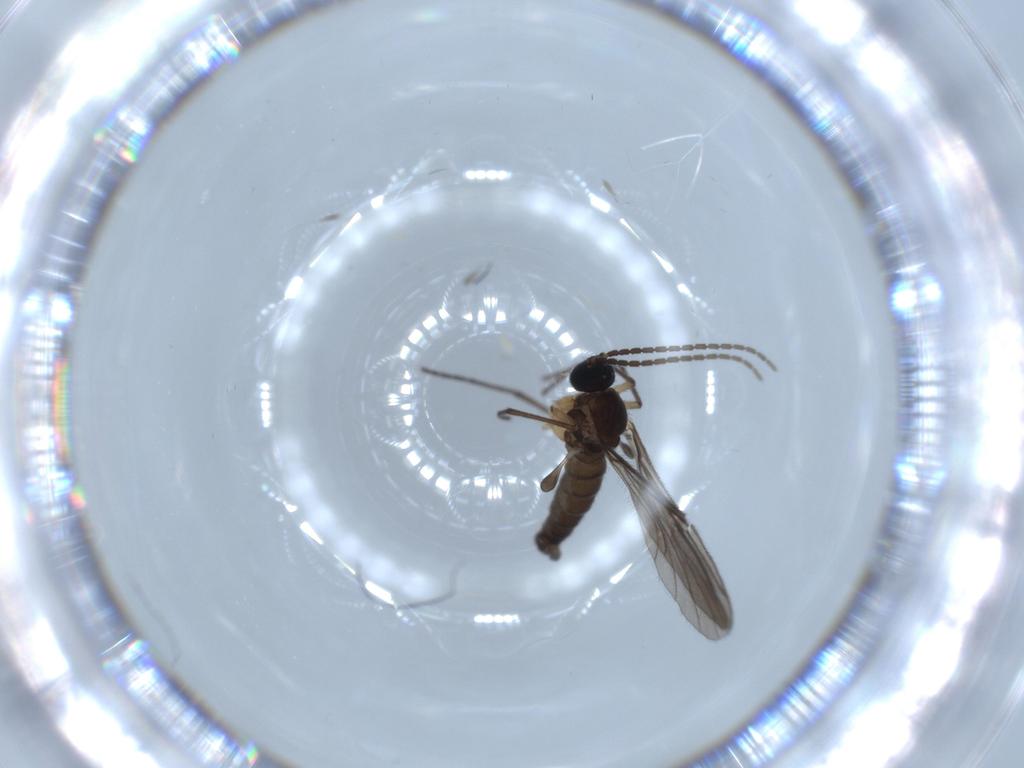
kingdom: Animalia
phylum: Arthropoda
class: Insecta
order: Diptera
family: Sciaridae
